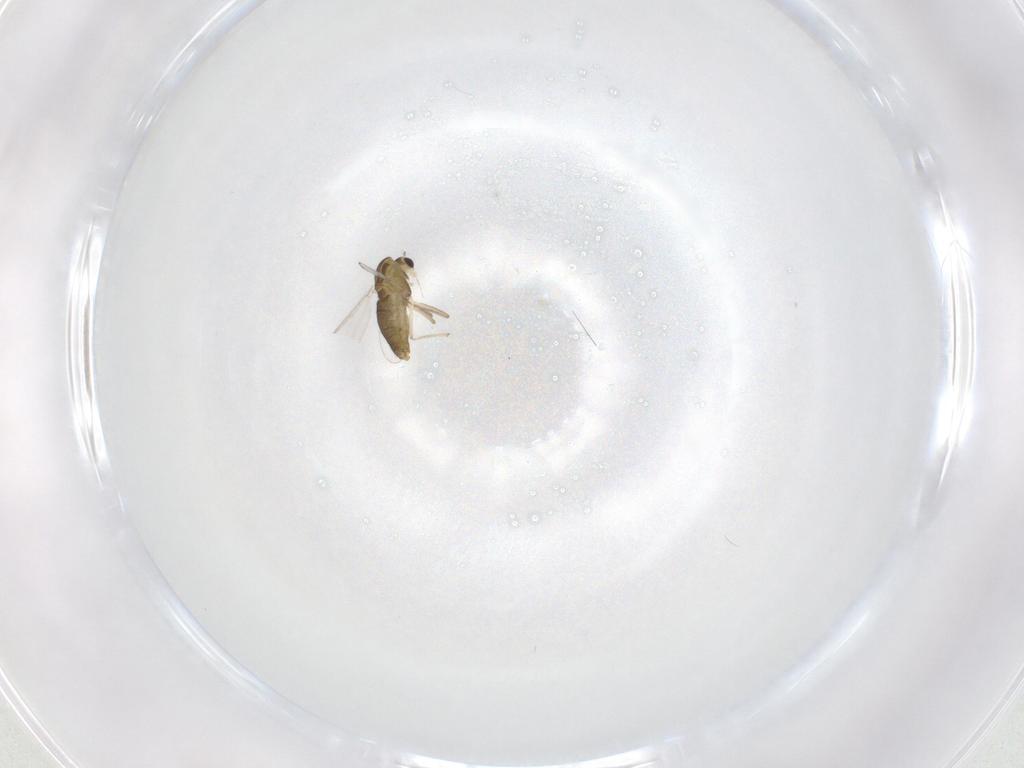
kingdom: Animalia
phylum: Arthropoda
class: Insecta
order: Diptera
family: Chironomidae
